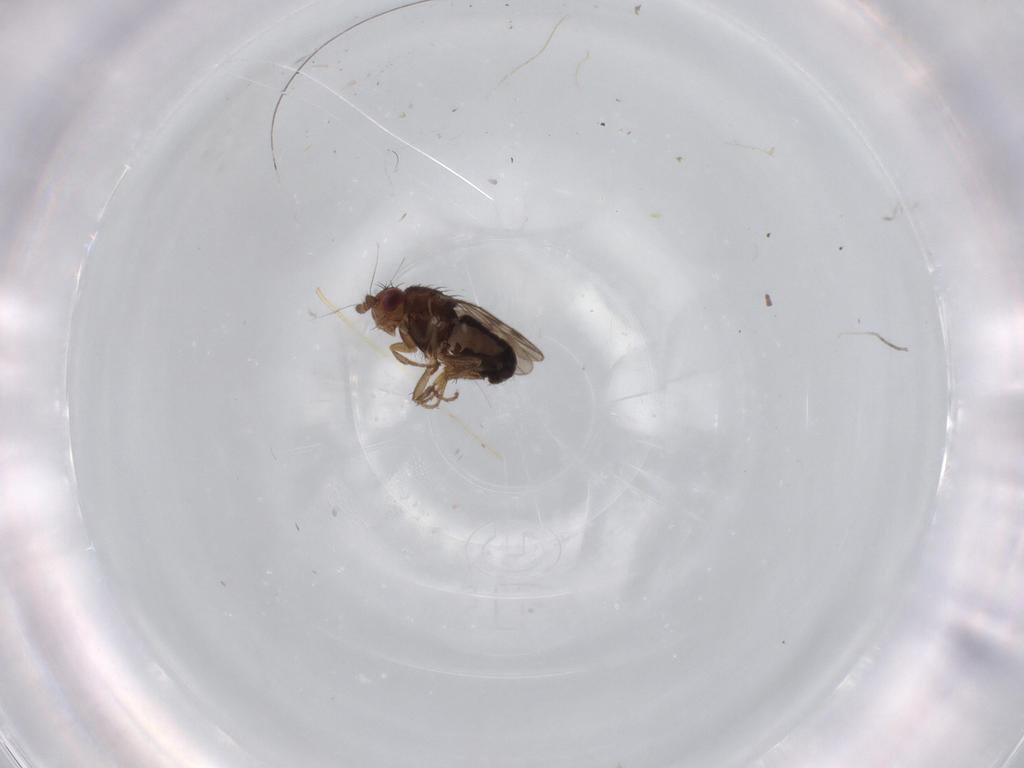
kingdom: Animalia
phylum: Arthropoda
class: Insecta
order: Diptera
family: Sphaeroceridae
